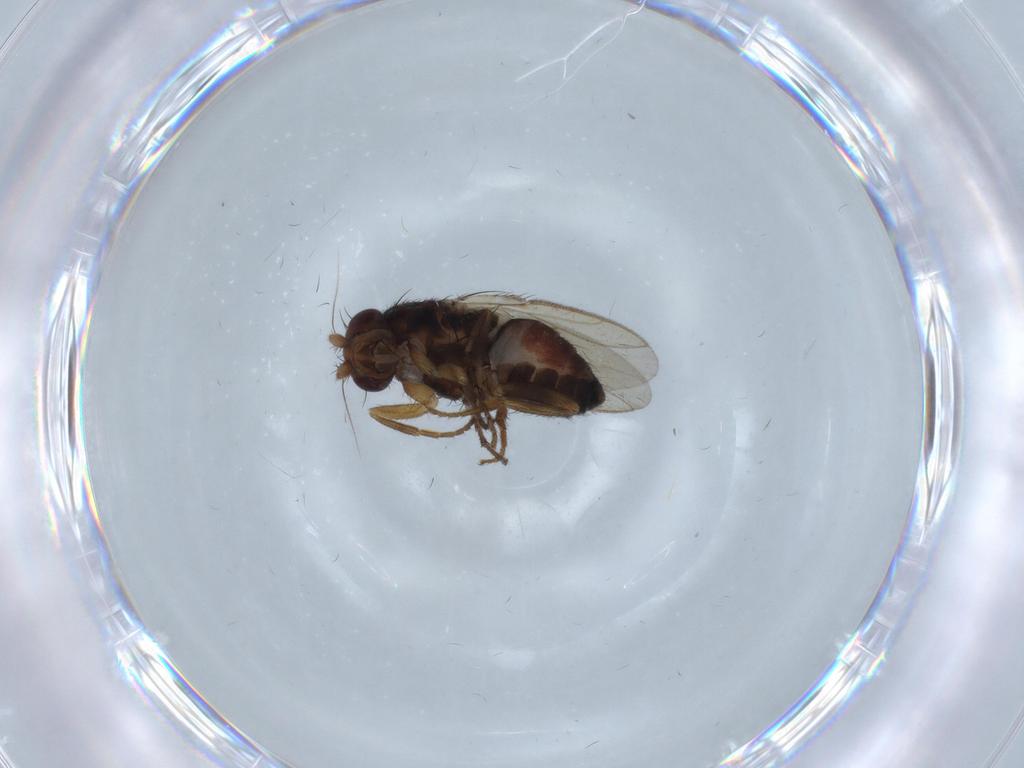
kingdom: Animalia
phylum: Arthropoda
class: Insecta
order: Diptera
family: Sphaeroceridae
